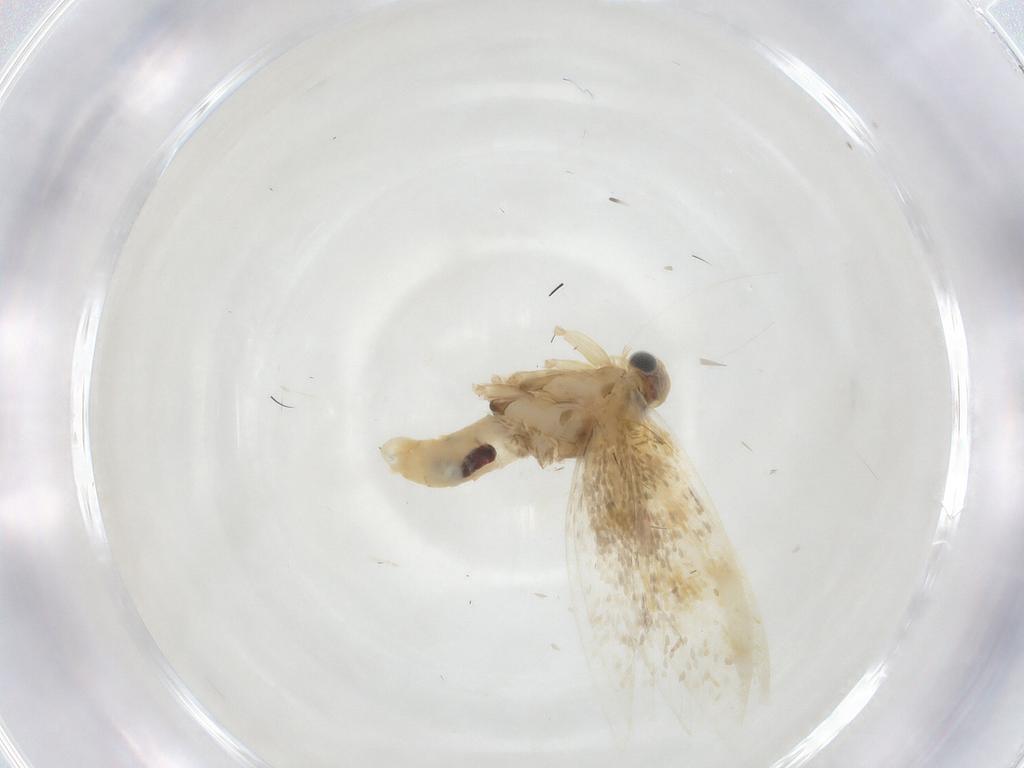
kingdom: Animalia
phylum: Arthropoda
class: Insecta
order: Lepidoptera
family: Argyresthiidae
